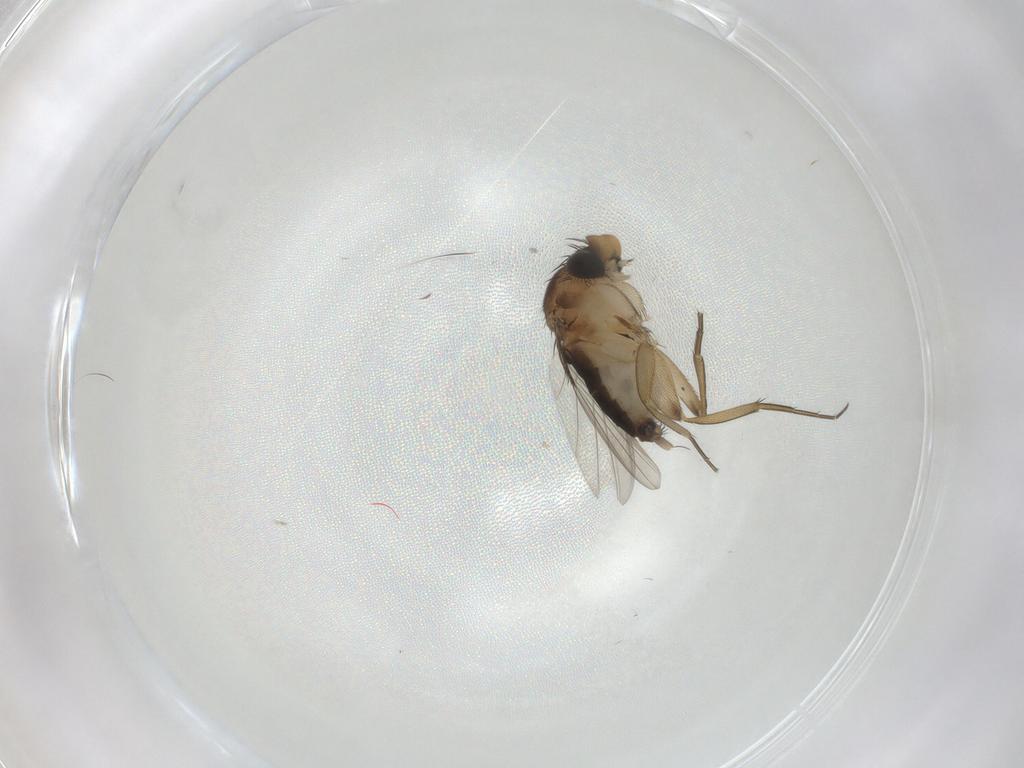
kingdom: Animalia
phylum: Arthropoda
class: Insecta
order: Diptera
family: Phoridae
